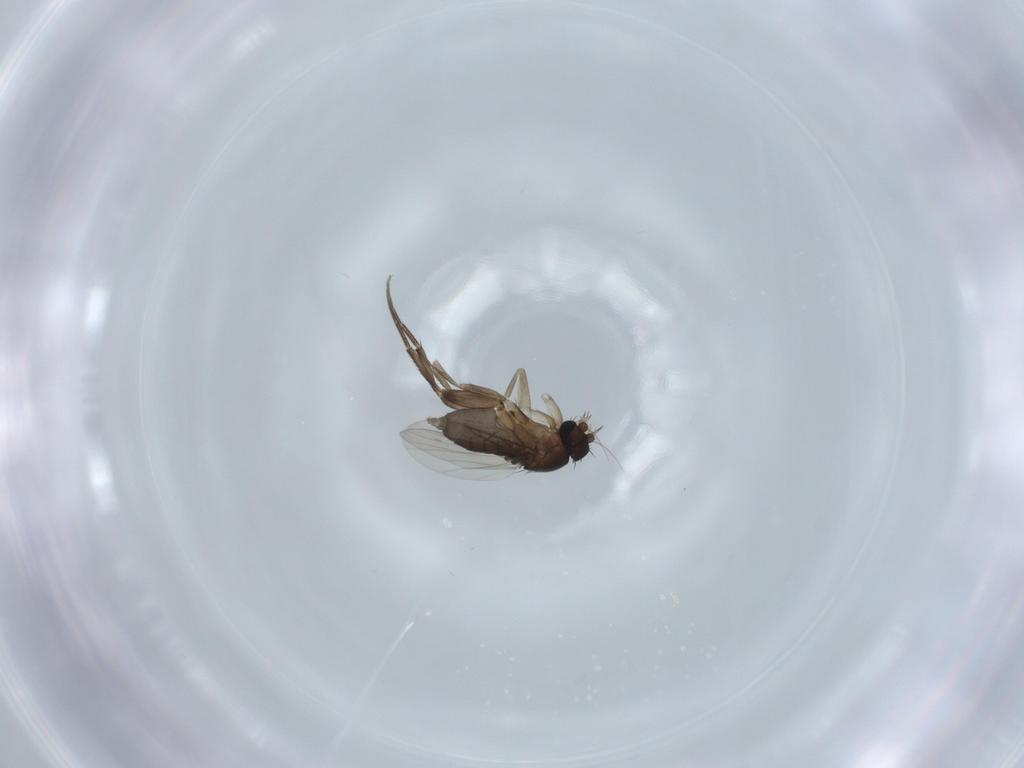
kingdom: Animalia
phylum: Arthropoda
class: Insecta
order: Diptera
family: Phoridae
